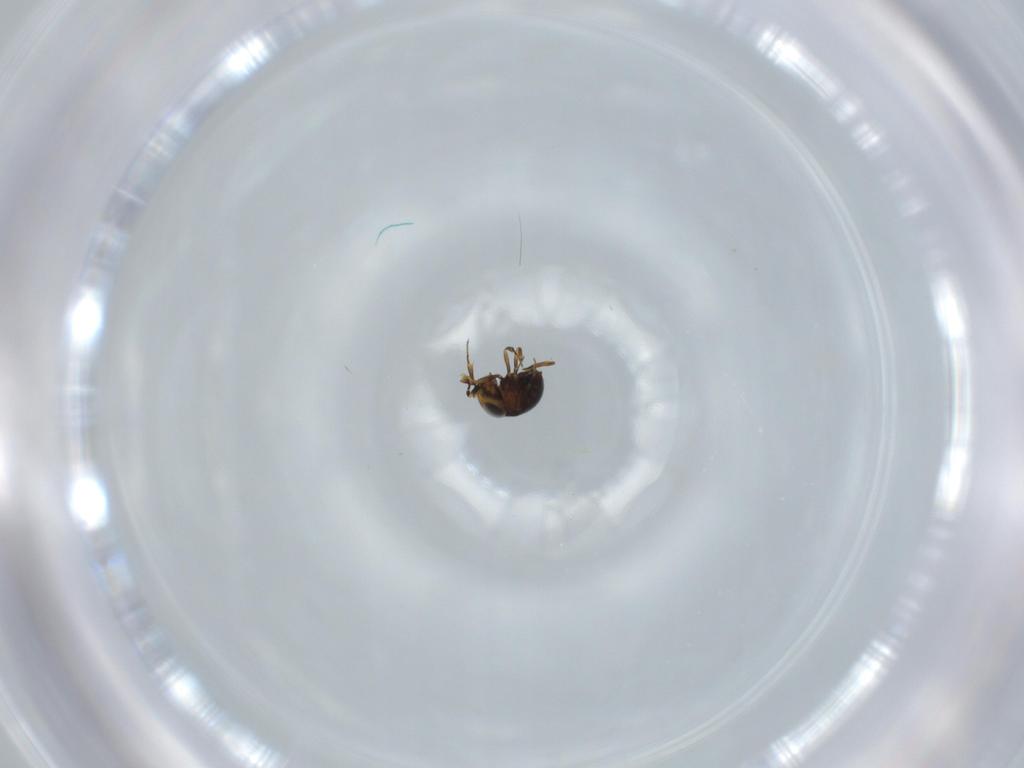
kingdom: Animalia
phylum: Arthropoda
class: Insecta
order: Hymenoptera
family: Scelionidae
